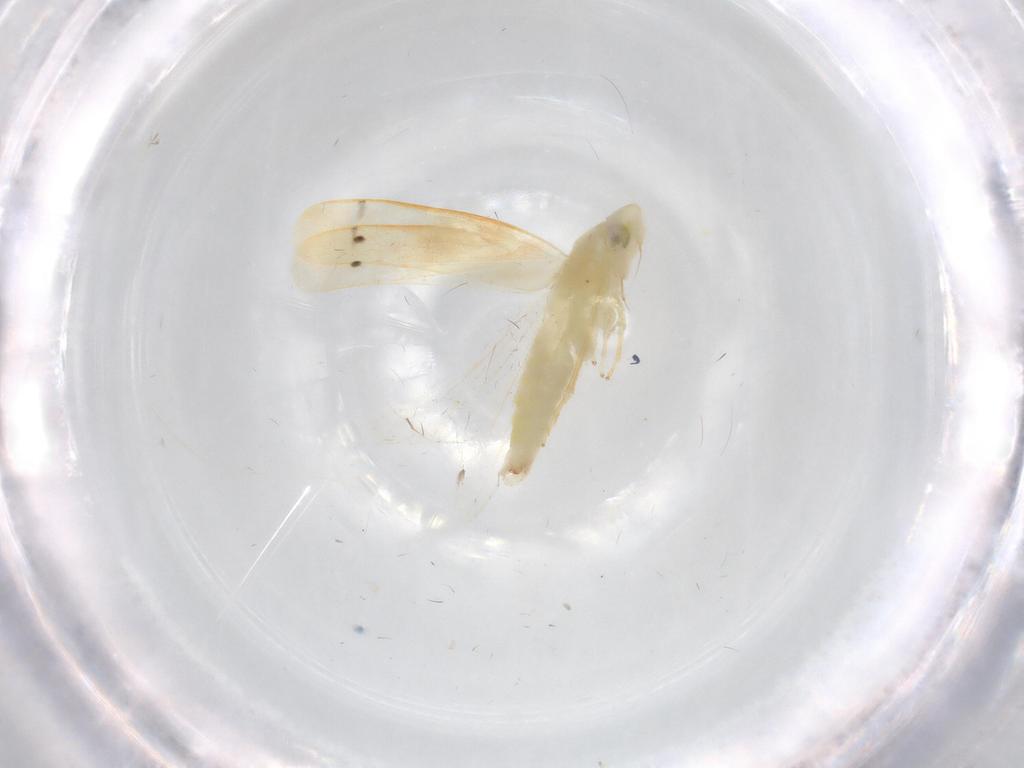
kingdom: Animalia
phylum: Arthropoda
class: Insecta
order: Hemiptera
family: Cicadellidae
